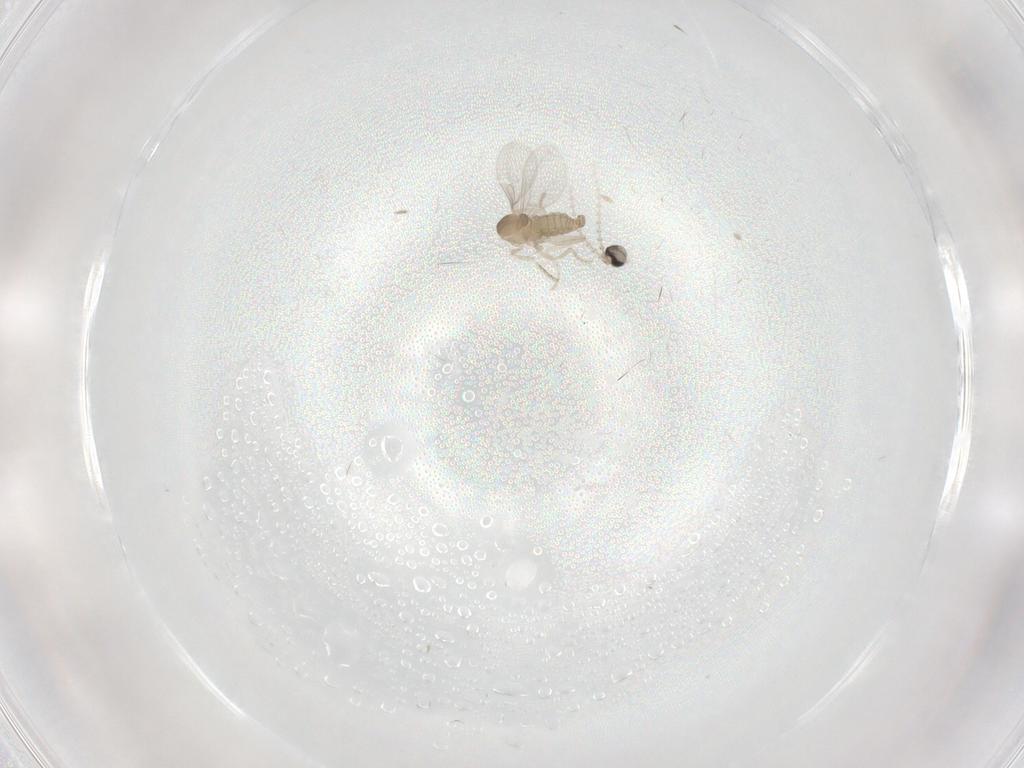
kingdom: Animalia
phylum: Arthropoda
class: Insecta
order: Diptera
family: Cecidomyiidae
